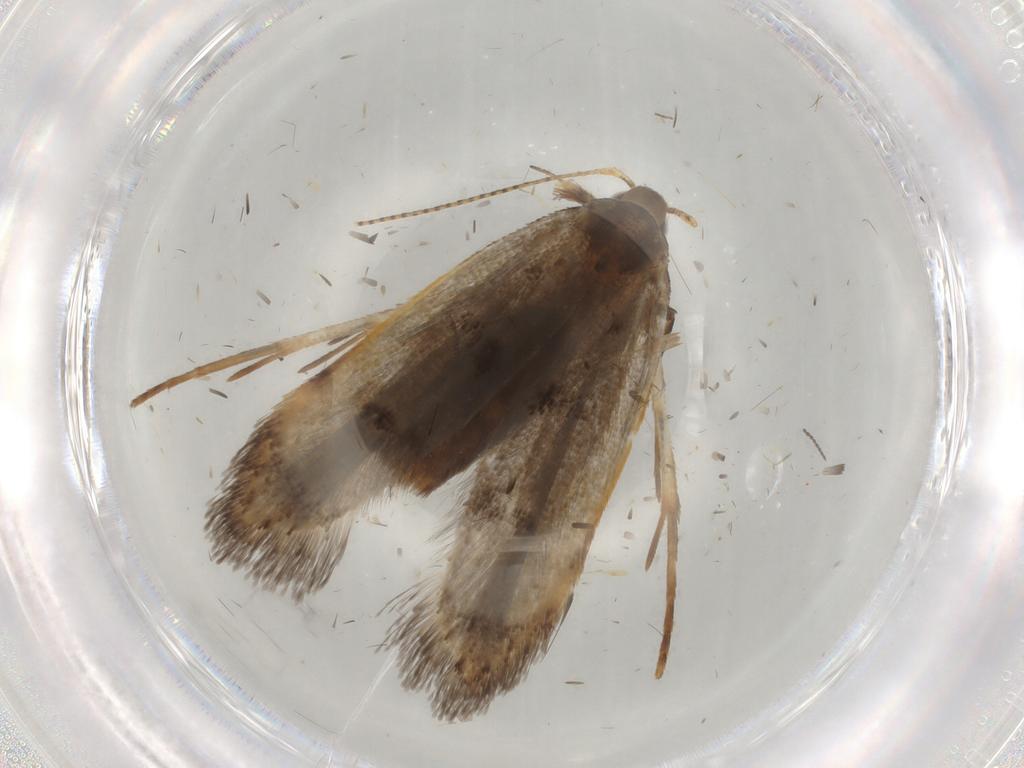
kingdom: Animalia
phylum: Arthropoda
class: Insecta
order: Lepidoptera
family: Gelechiidae
